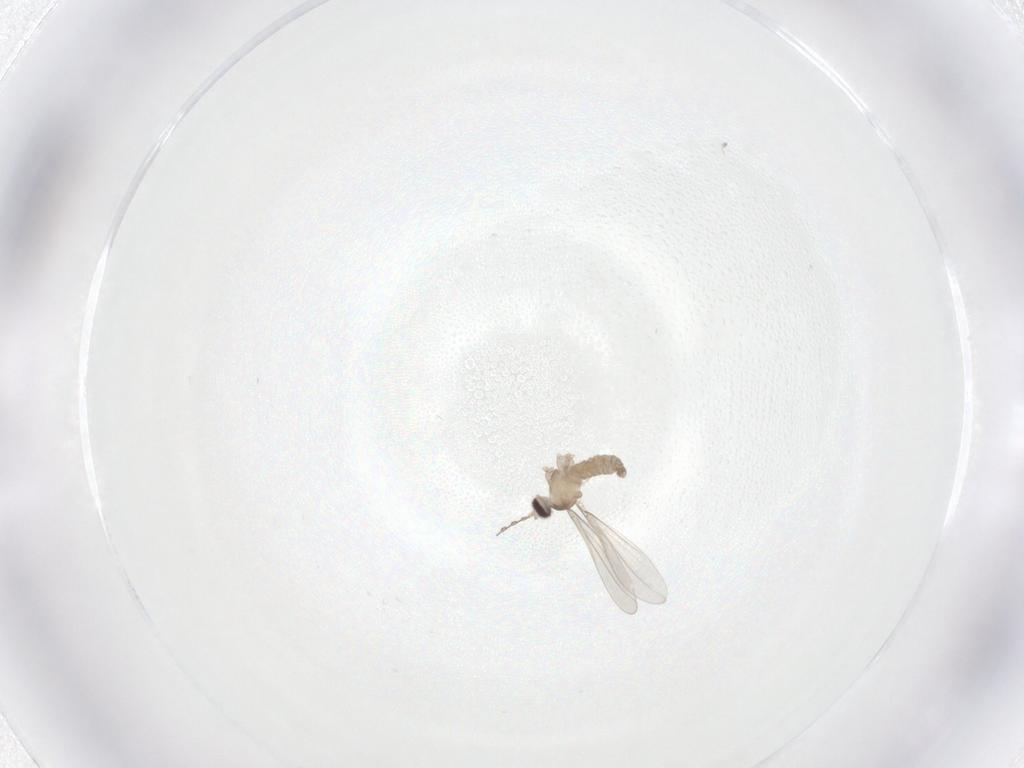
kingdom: Animalia
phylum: Arthropoda
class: Insecta
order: Diptera
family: Cecidomyiidae
